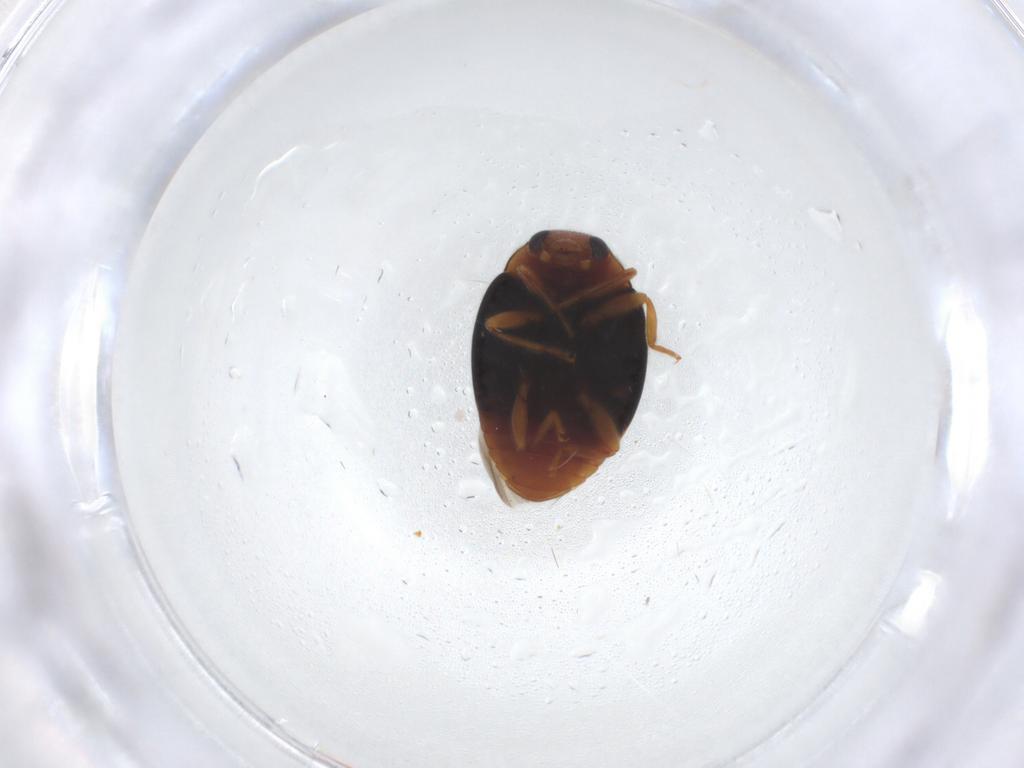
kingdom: Animalia
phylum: Arthropoda
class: Insecta
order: Coleoptera
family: Coccinellidae
